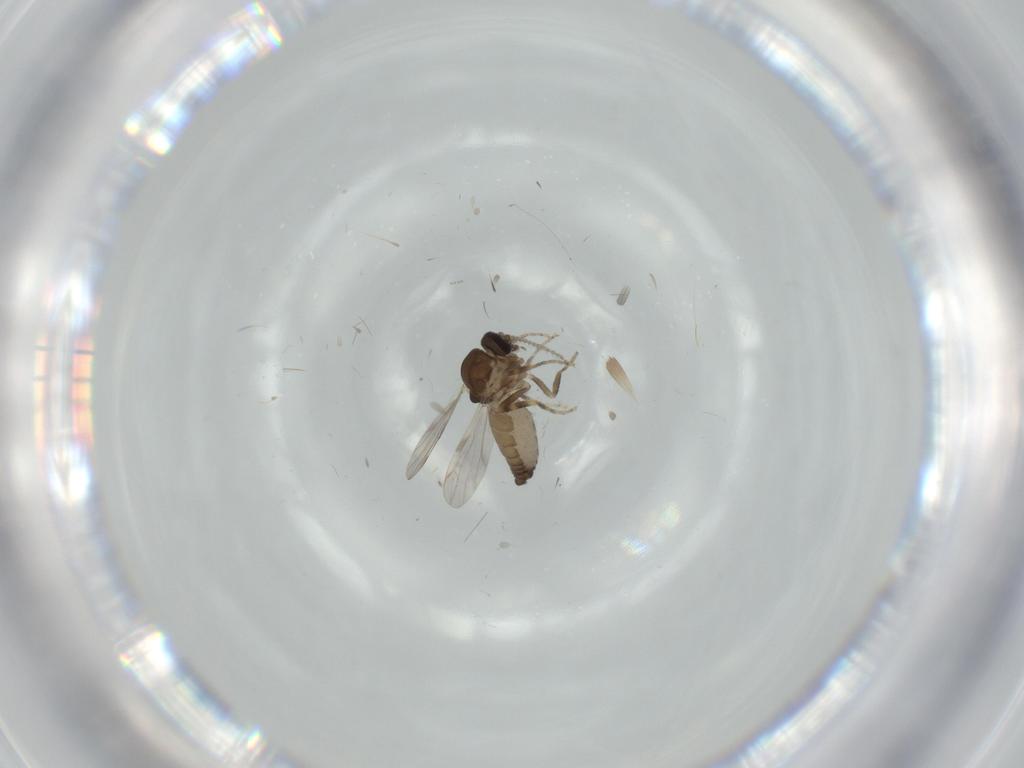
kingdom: Animalia
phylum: Arthropoda
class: Insecta
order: Diptera
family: Ceratopogonidae
